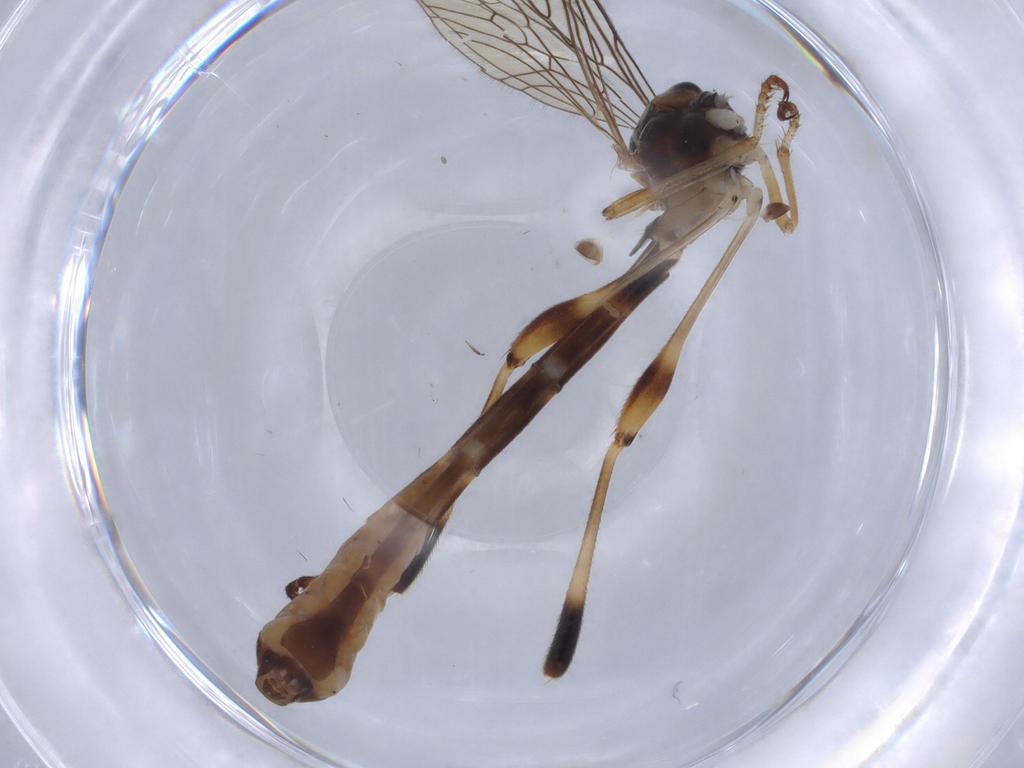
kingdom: Animalia
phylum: Arthropoda
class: Insecta
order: Diptera
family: Asilidae
